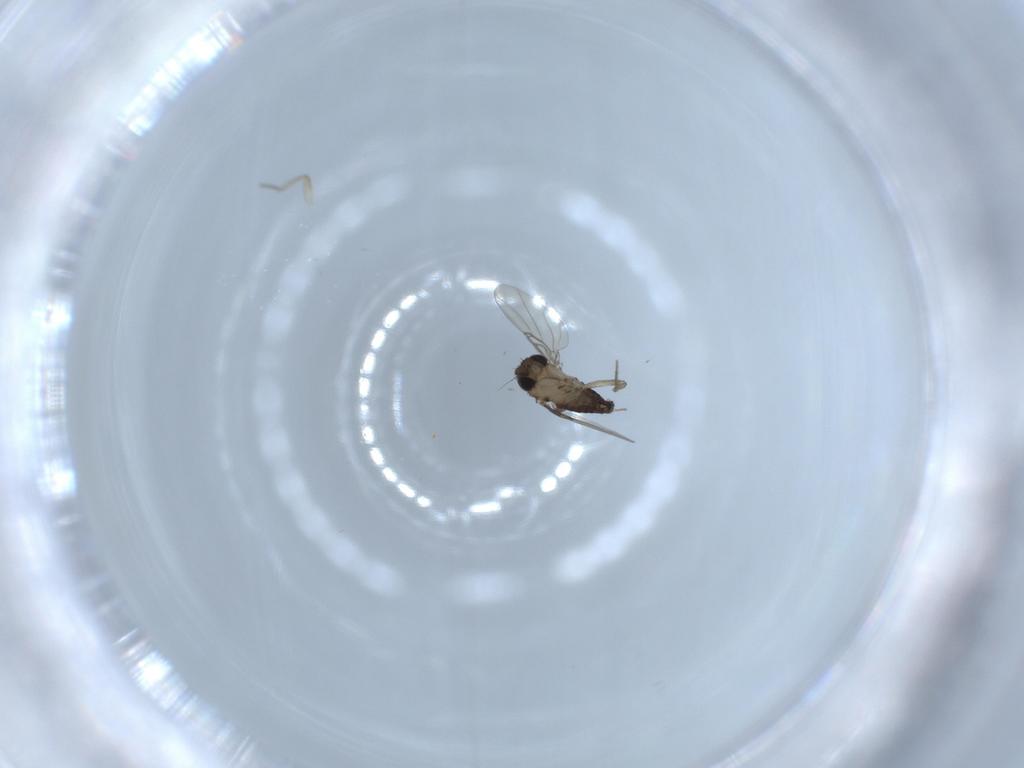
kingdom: Animalia
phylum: Arthropoda
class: Insecta
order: Diptera
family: Phoridae
